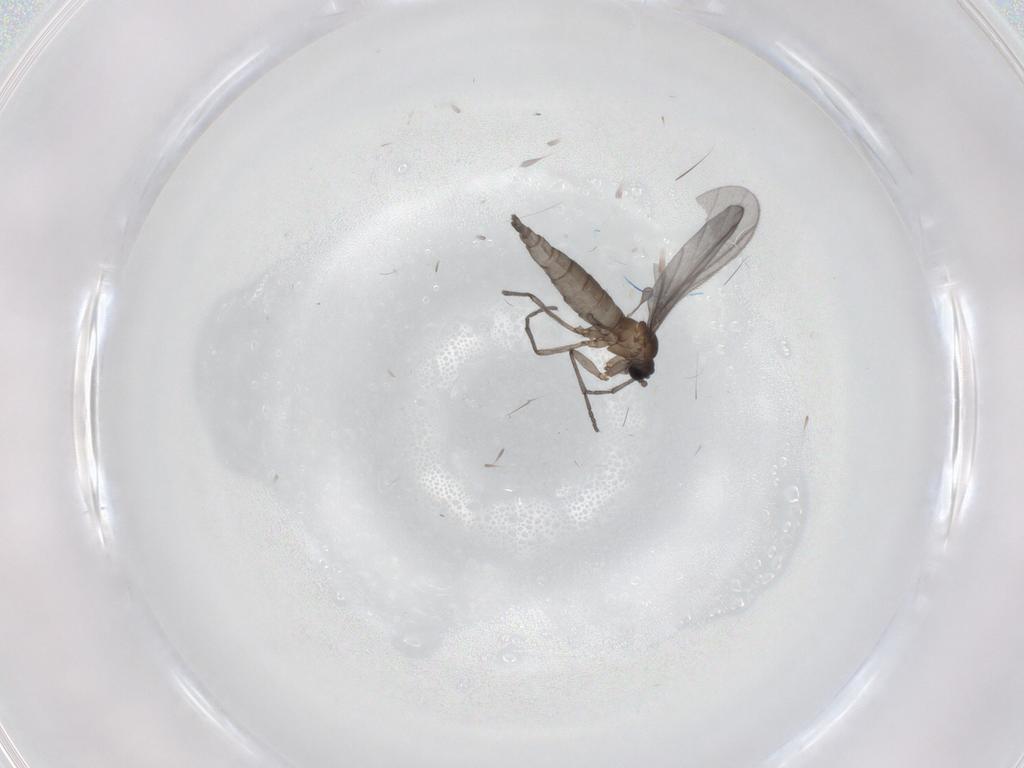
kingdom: Animalia
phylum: Arthropoda
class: Insecta
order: Diptera
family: Sciaridae
